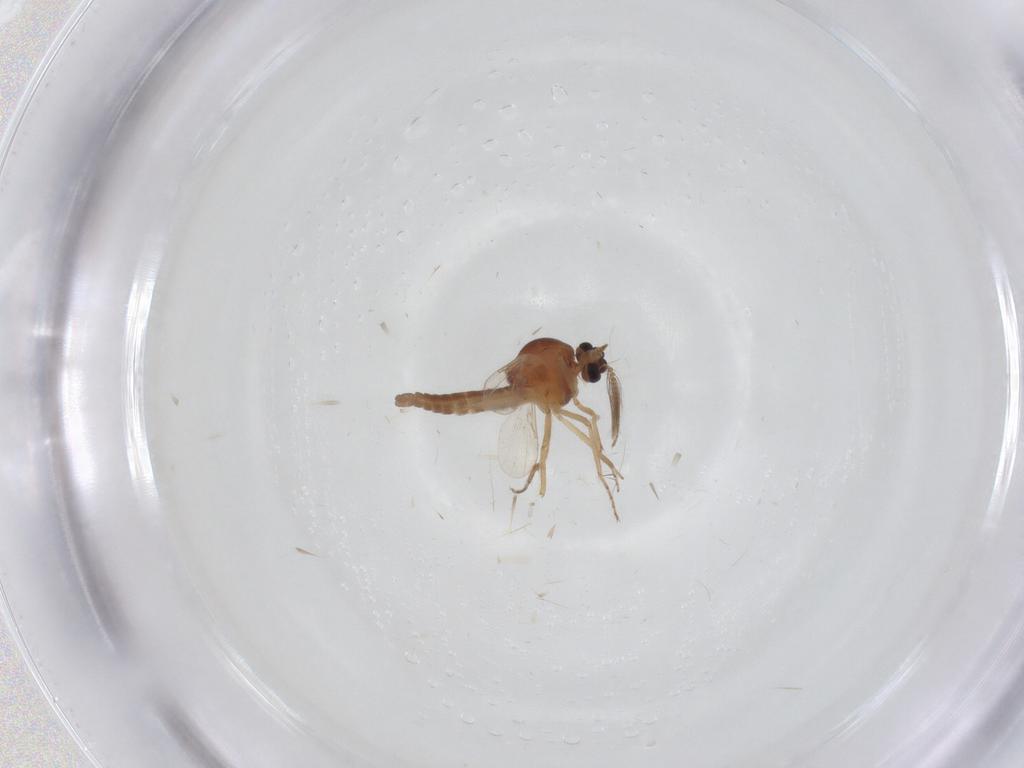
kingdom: Animalia
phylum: Arthropoda
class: Insecta
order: Diptera
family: Ceratopogonidae
